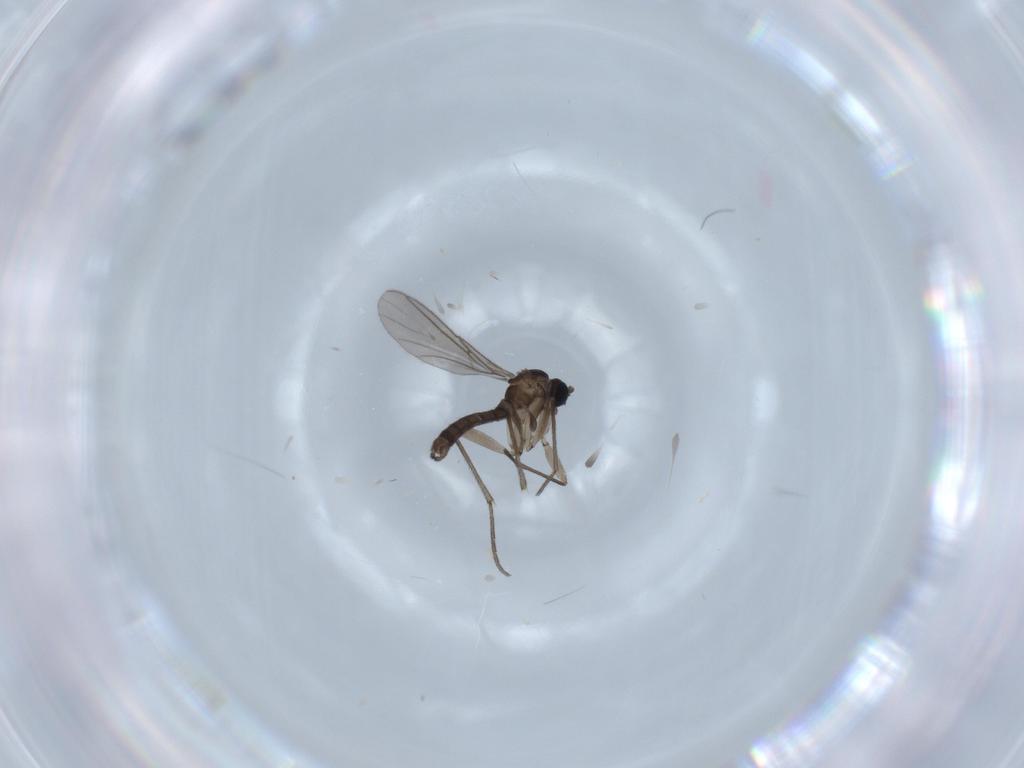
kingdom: Animalia
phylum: Arthropoda
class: Insecta
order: Diptera
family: Sciaridae
